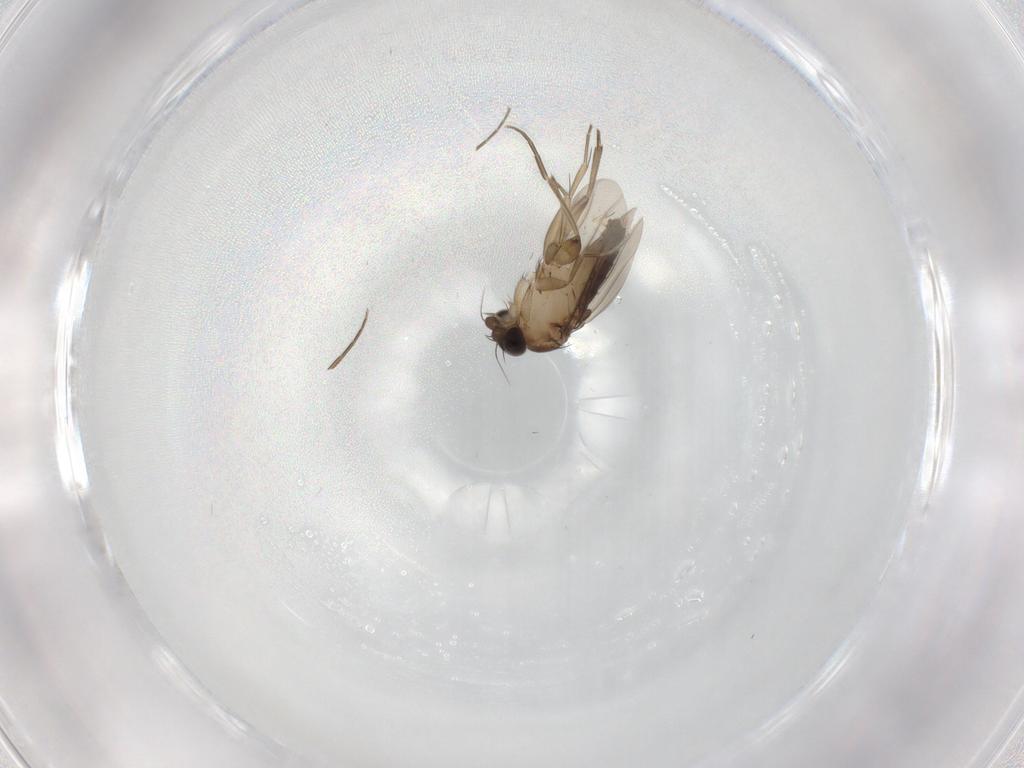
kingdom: Animalia
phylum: Arthropoda
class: Insecta
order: Diptera
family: Phoridae
